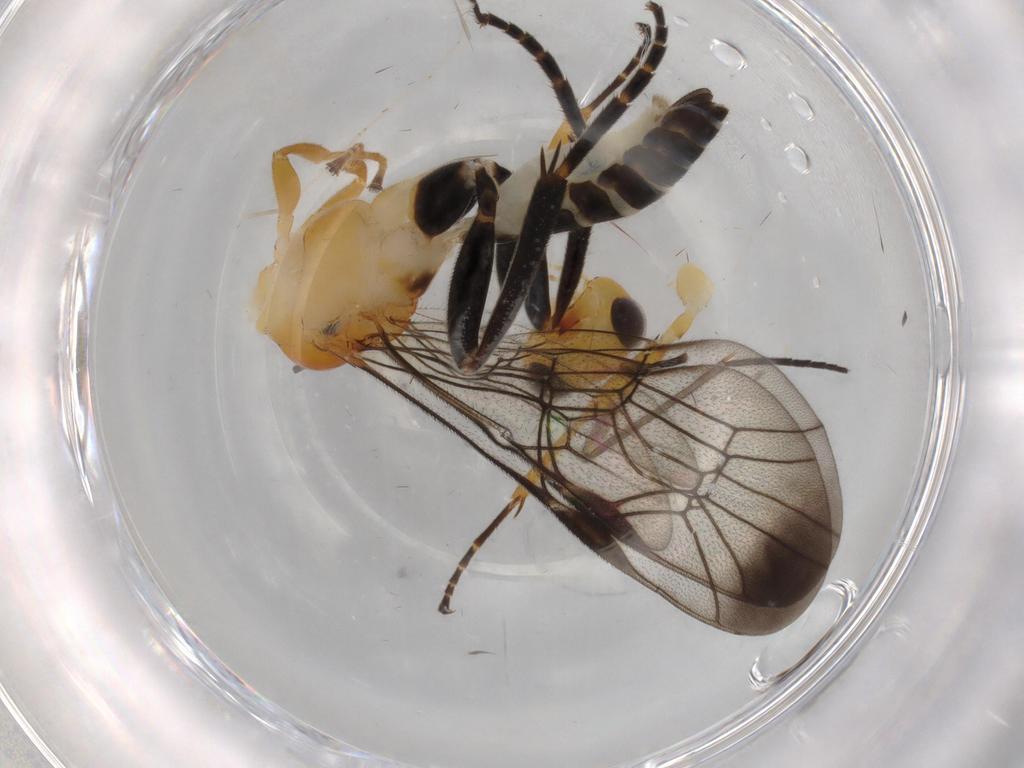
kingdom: Animalia
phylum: Arthropoda
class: Insecta
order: Hymenoptera
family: Diapriidae
